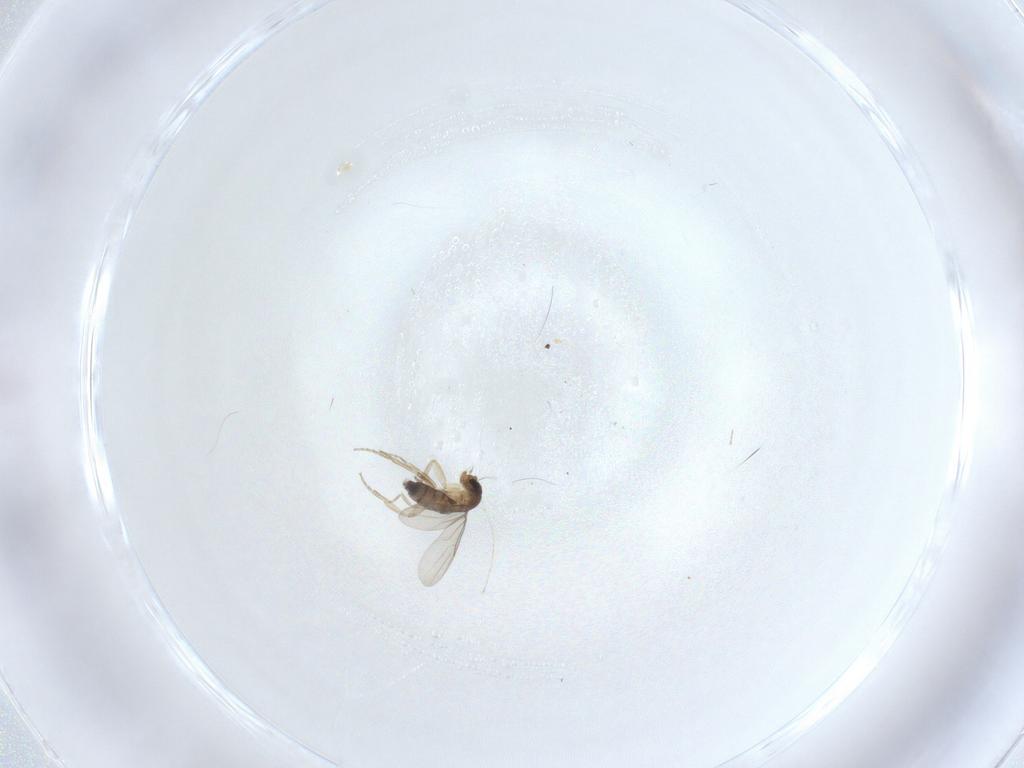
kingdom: Animalia
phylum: Arthropoda
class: Insecta
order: Diptera
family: Phoridae
